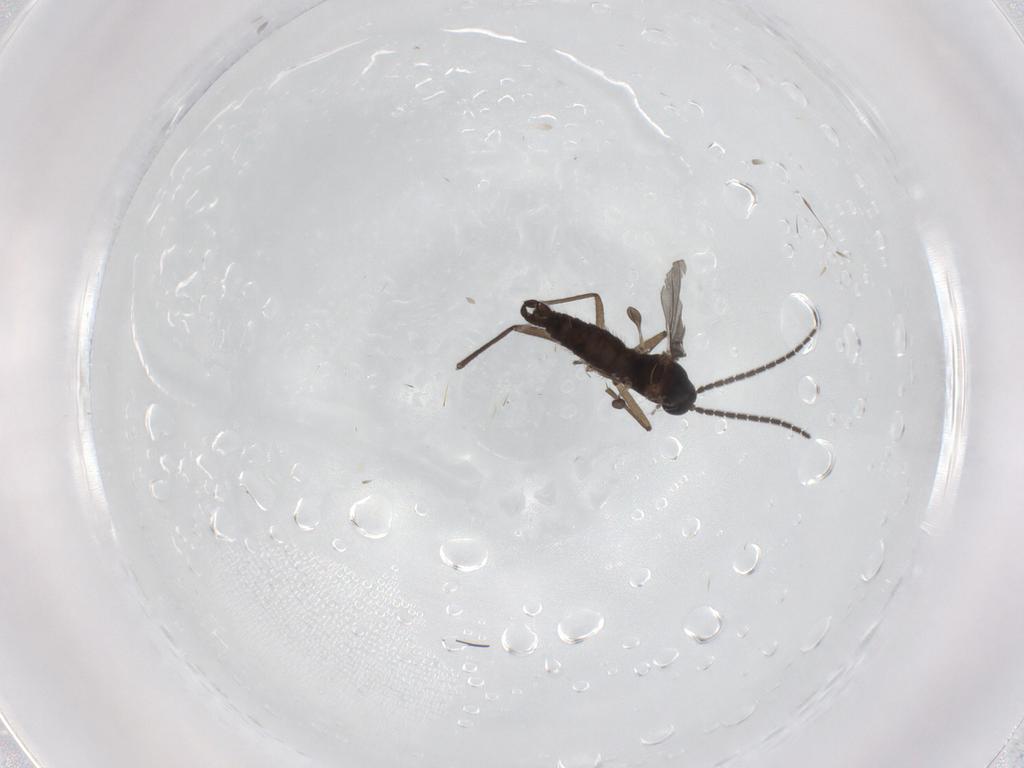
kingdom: Animalia
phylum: Arthropoda
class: Insecta
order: Diptera
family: Sciaridae
